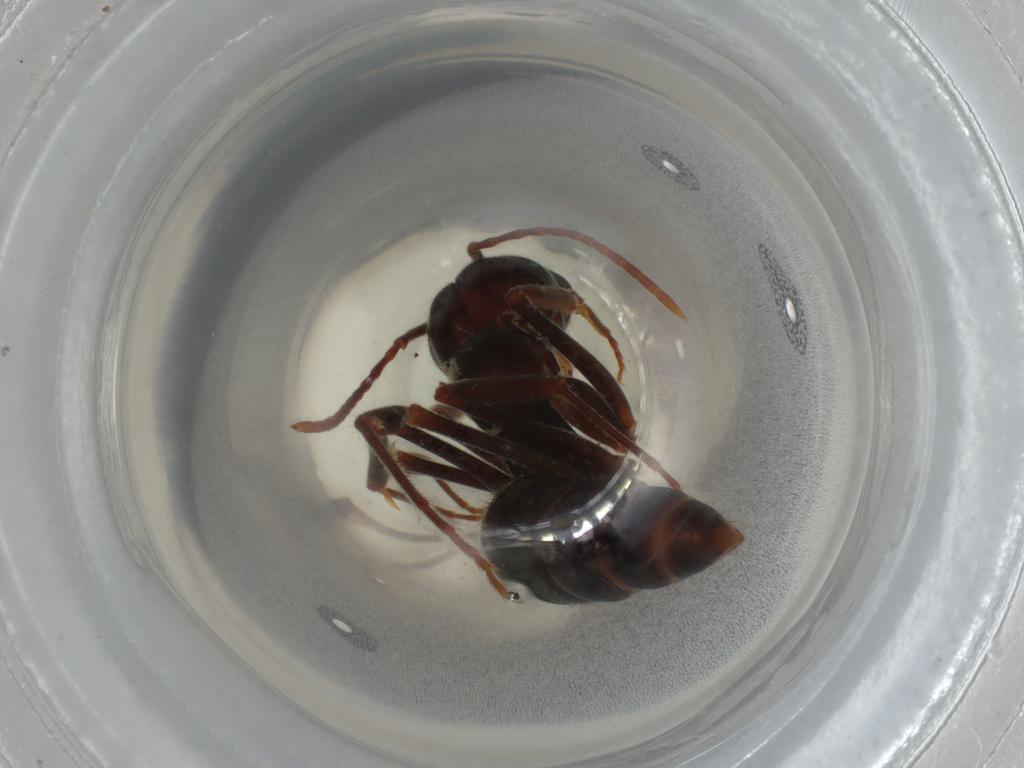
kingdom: Animalia
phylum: Arthropoda
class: Insecta
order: Hymenoptera
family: Formicidae
